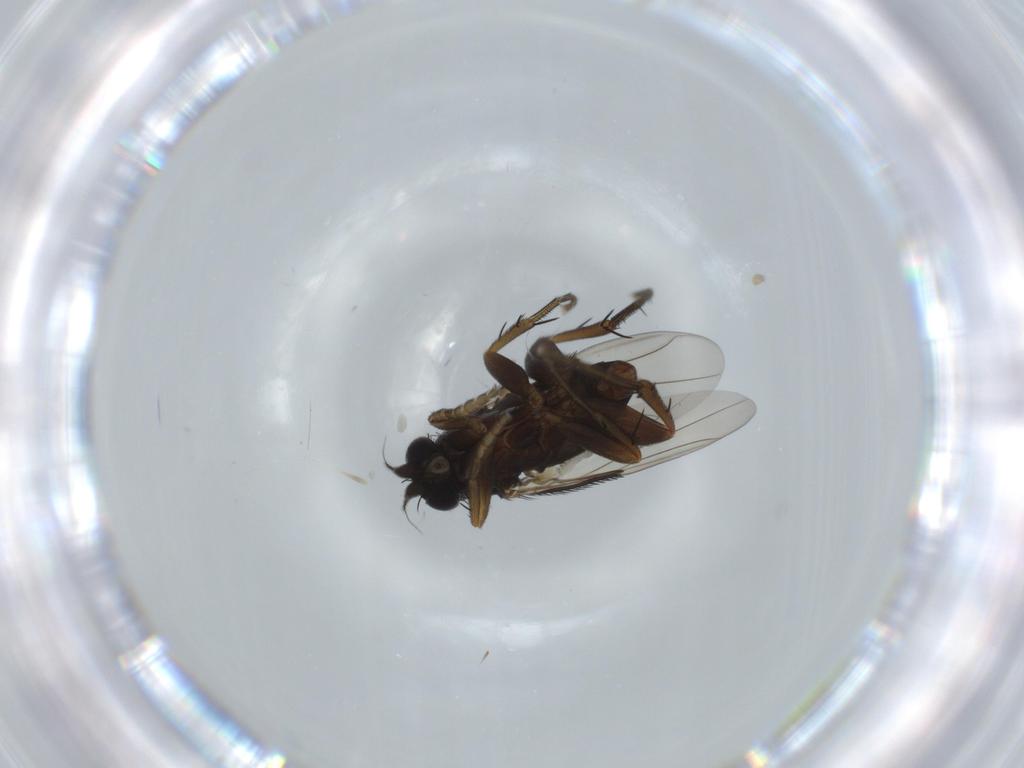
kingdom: Animalia
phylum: Arthropoda
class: Insecta
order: Diptera
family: Phoridae
